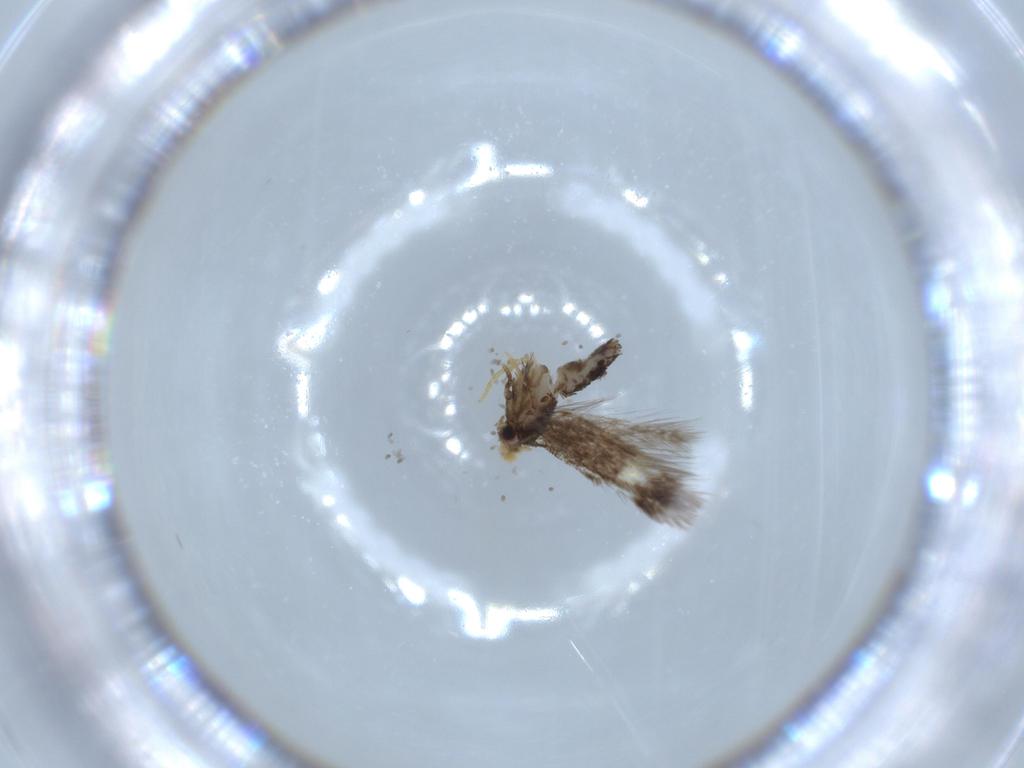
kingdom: Animalia
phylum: Arthropoda
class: Insecta
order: Lepidoptera
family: Nepticulidae
